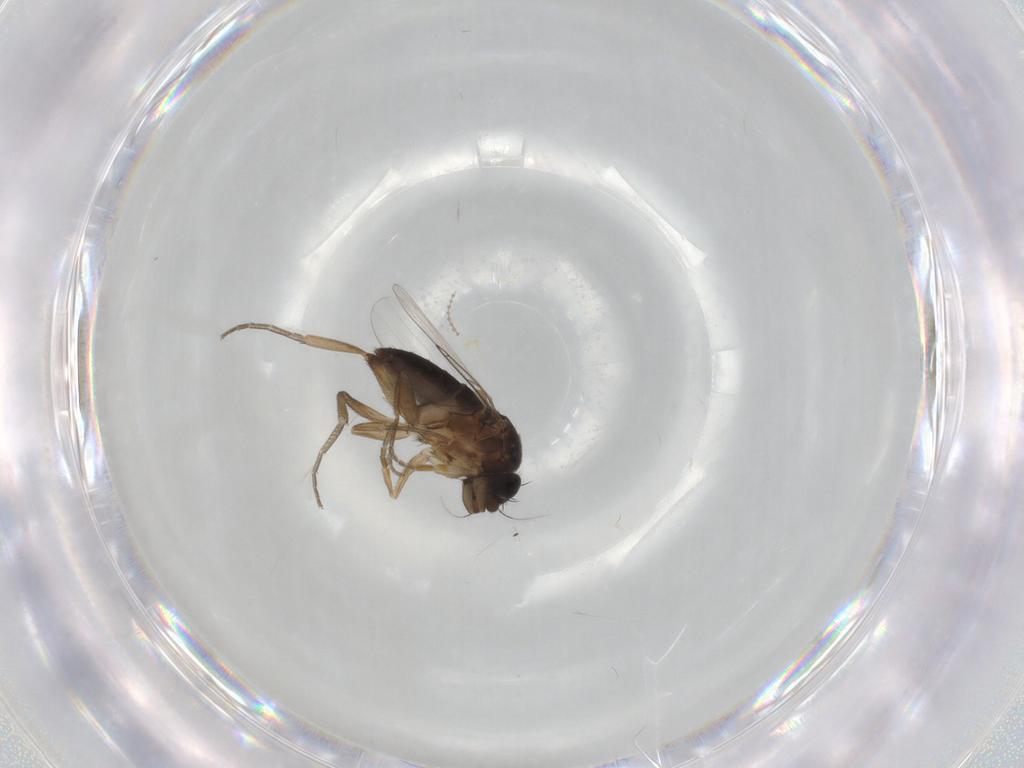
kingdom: Animalia
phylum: Arthropoda
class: Insecta
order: Diptera
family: Phoridae
